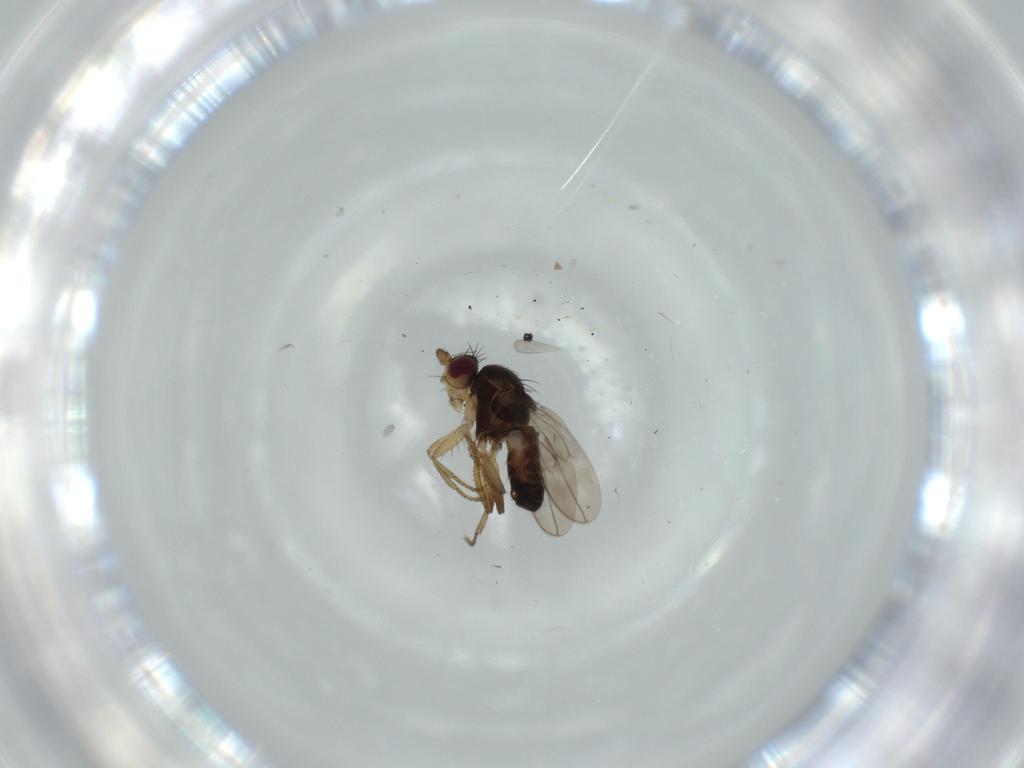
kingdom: Animalia
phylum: Arthropoda
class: Insecta
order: Diptera
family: Sphaeroceridae
